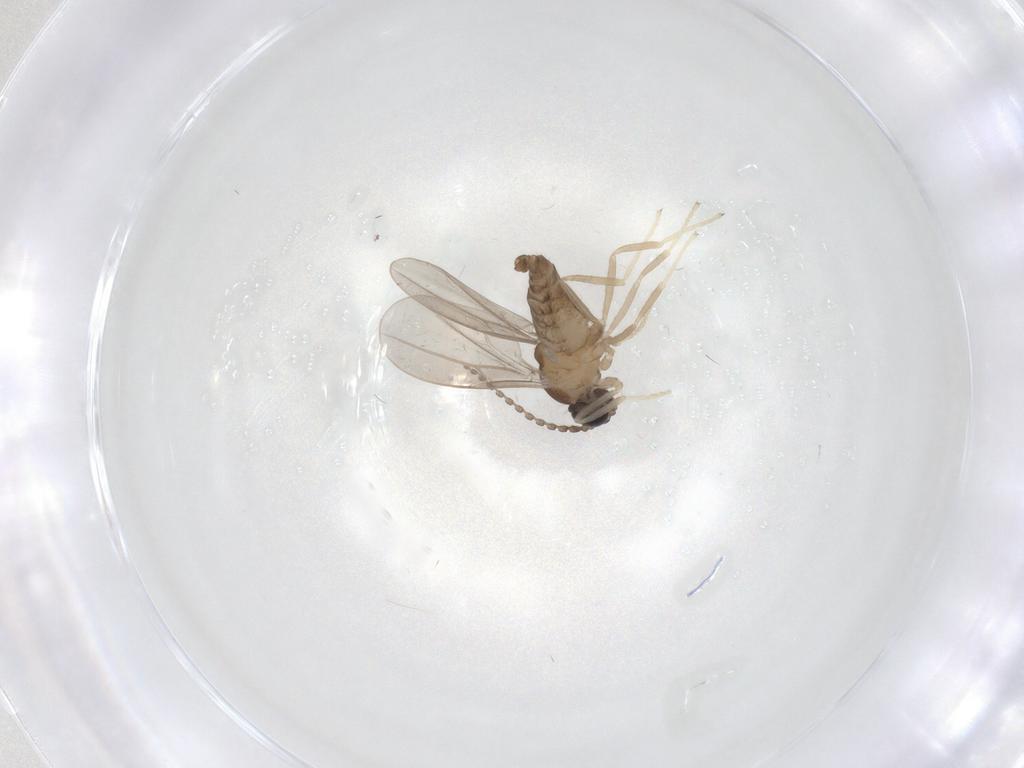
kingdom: Animalia
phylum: Arthropoda
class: Insecta
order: Diptera
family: Cecidomyiidae
